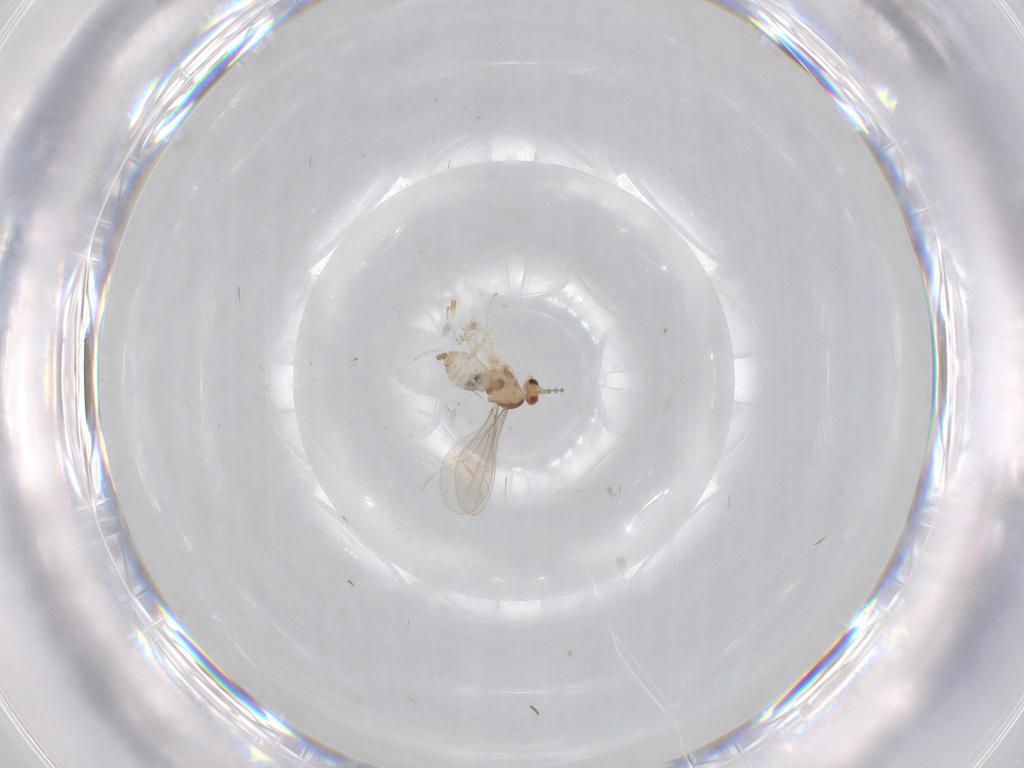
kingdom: Animalia
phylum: Arthropoda
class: Insecta
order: Diptera
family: Cecidomyiidae
